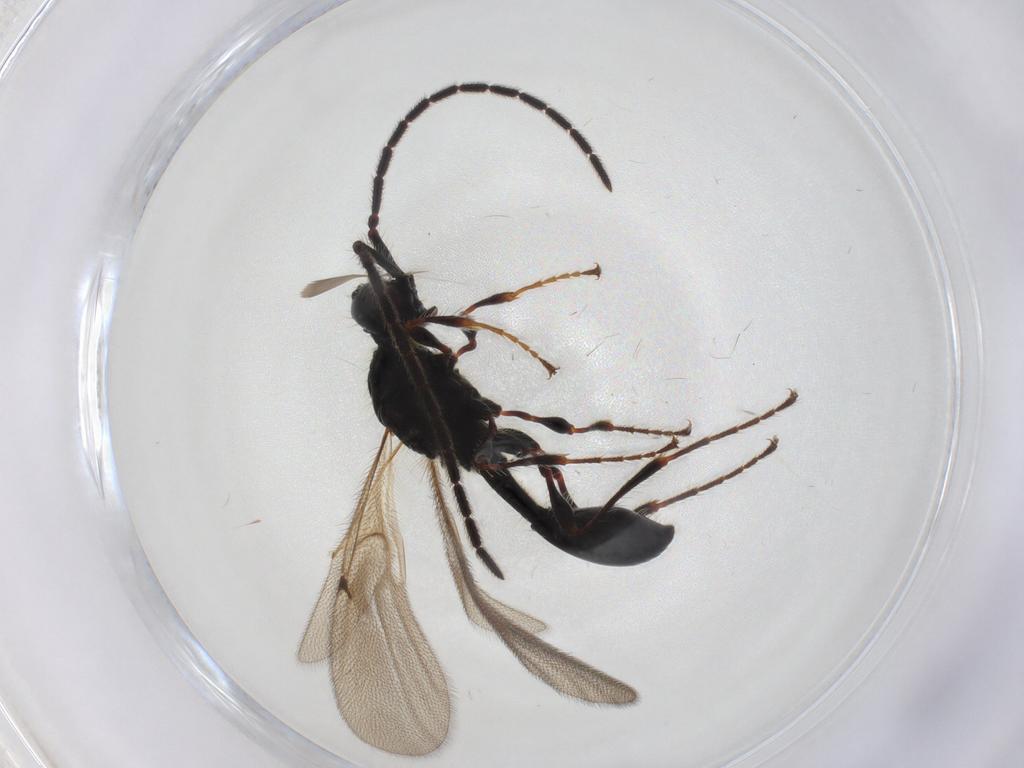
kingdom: Animalia
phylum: Arthropoda
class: Insecta
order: Hymenoptera
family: Diapriidae
